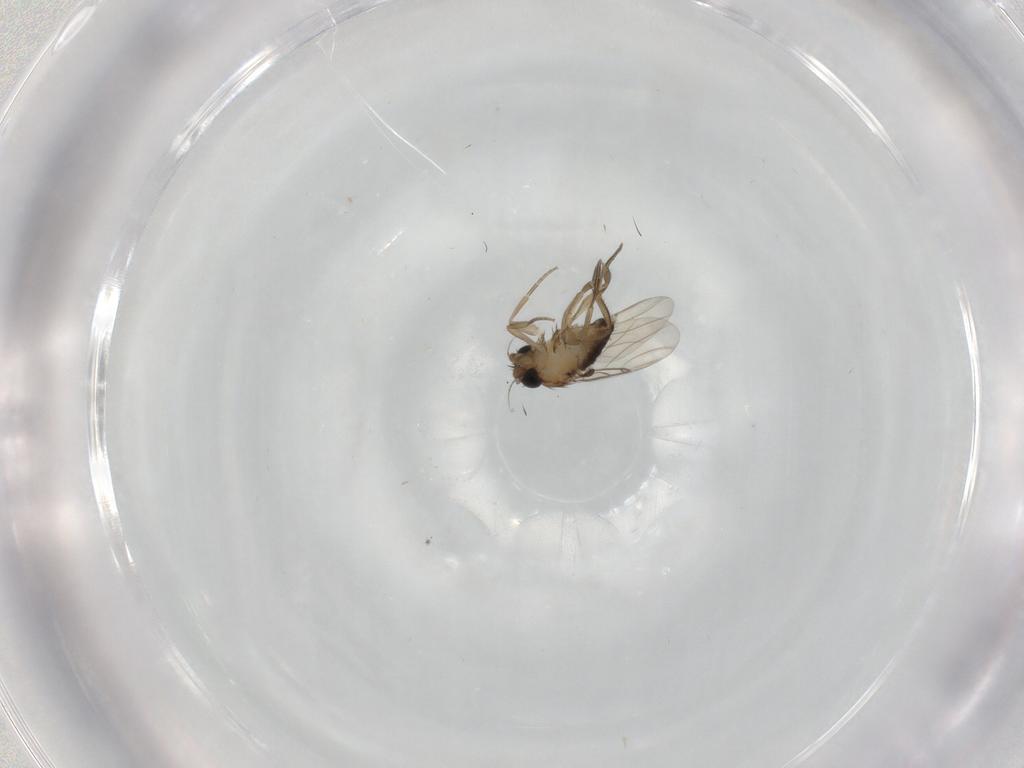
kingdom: Animalia
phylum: Arthropoda
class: Insecta
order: Diptera
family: Phoridae
